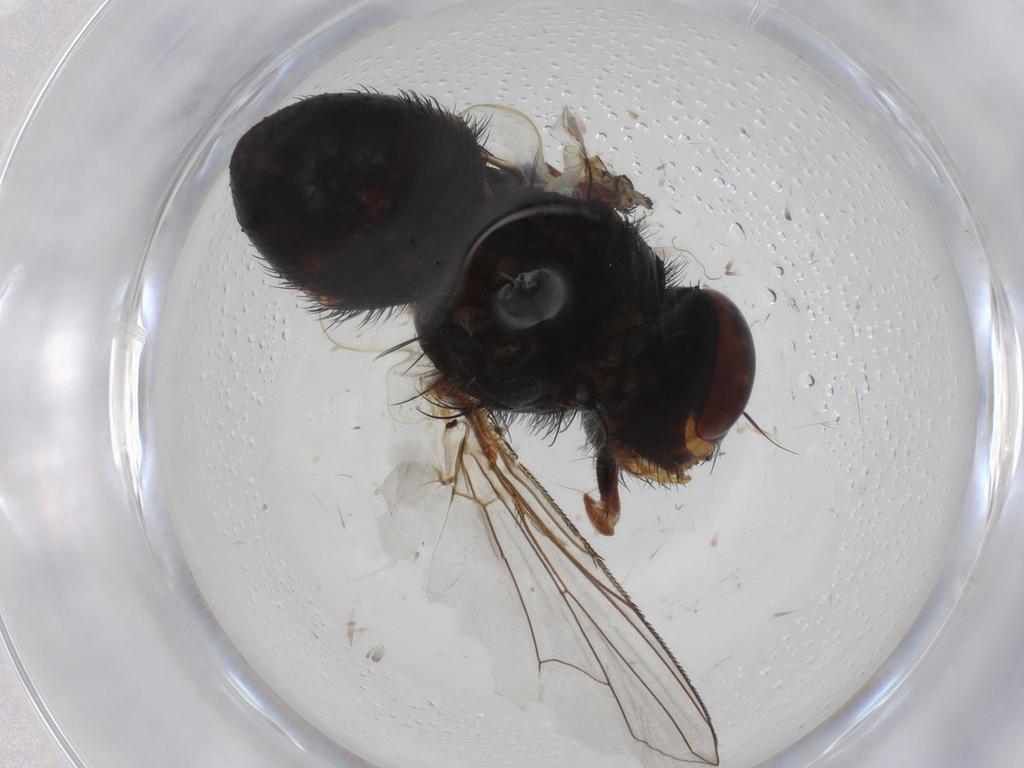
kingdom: Animalia
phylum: Arthropoda
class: Insecta
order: Diptera
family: Tachinidae
